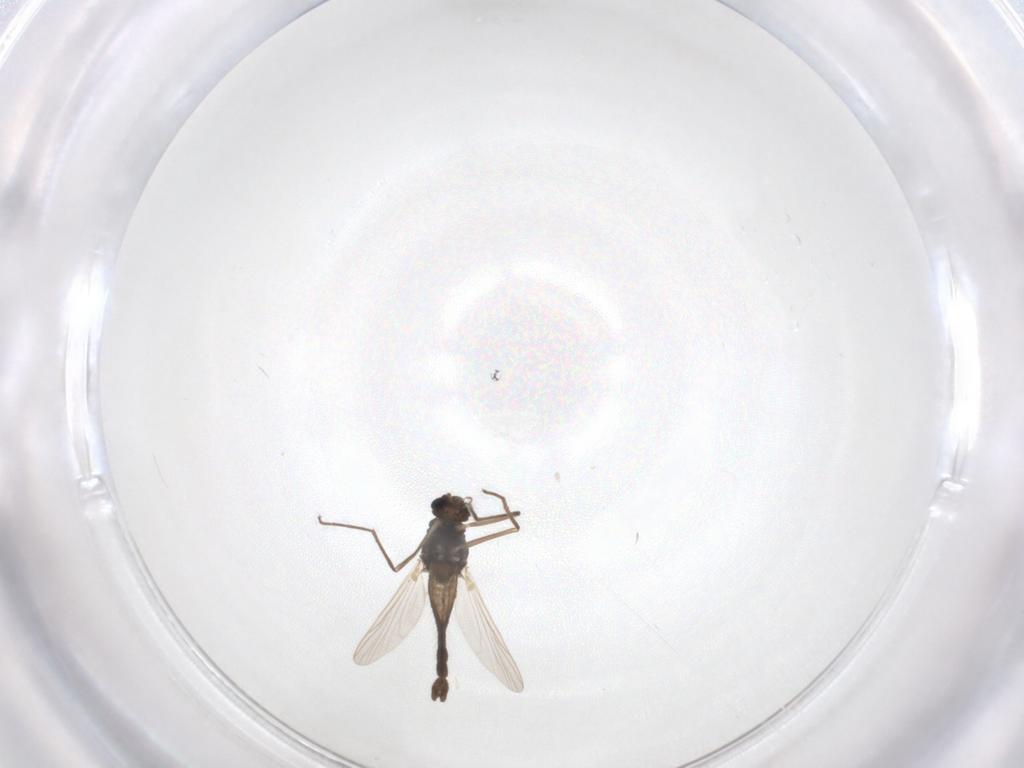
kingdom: Animalia
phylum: Arthropoda
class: Insecta
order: Diptera
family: Chironomidae
